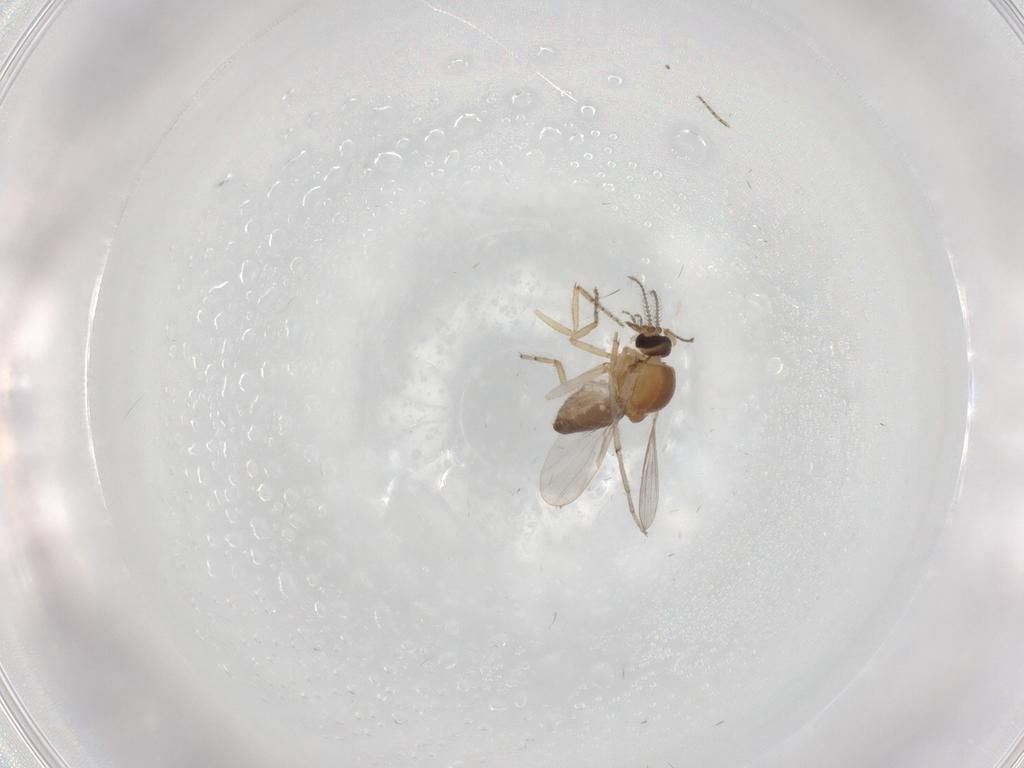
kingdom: Animalia
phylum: Arthropoda
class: Insecta
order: Diptera
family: Ceratopogonidae
